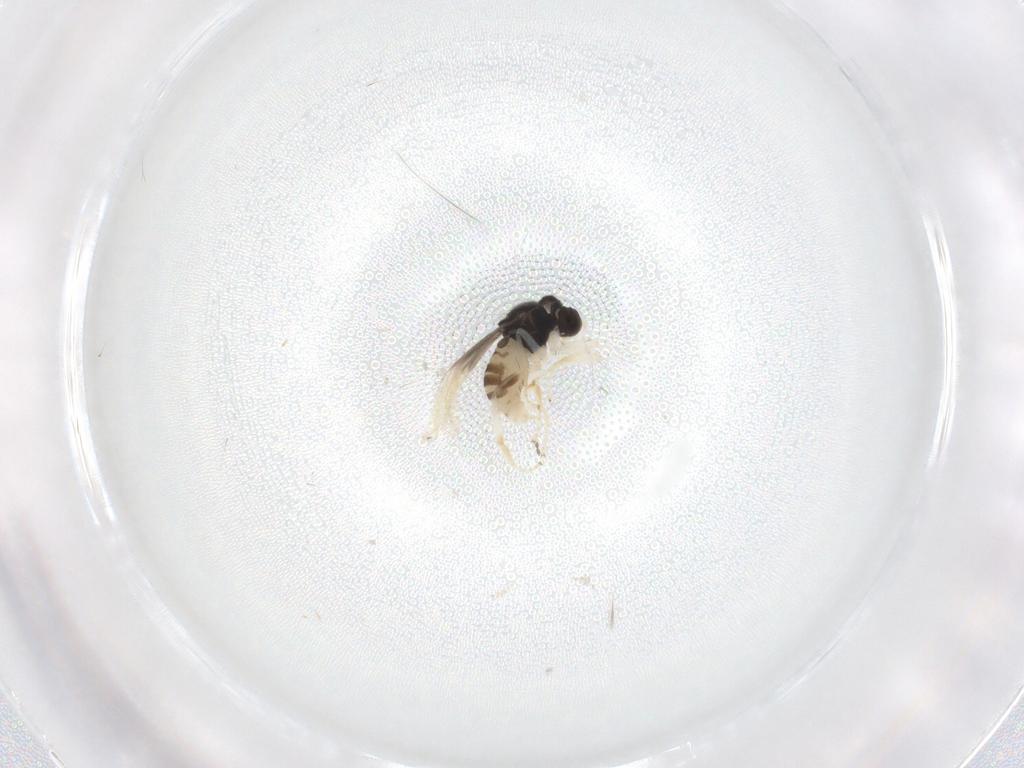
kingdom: Animalia
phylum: Arthropoda
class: Insecta
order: Diptera
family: Hybotidae
